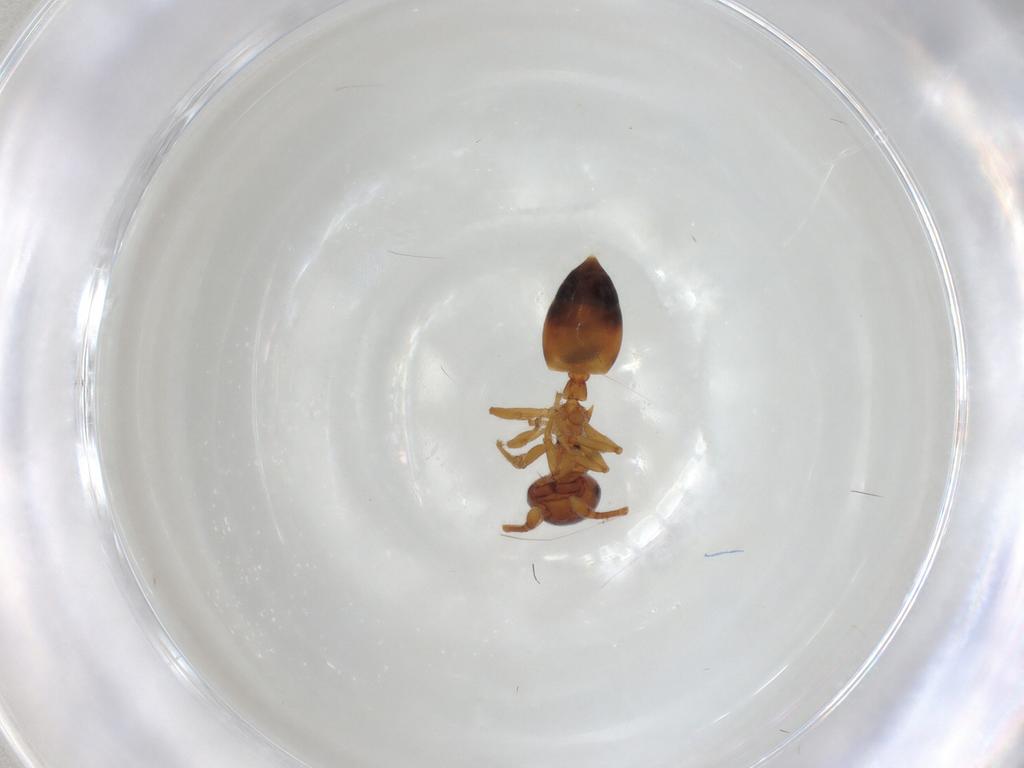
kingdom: Animalia
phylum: Arthropoda
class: Insecta
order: Hymenoptera
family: Formicidae
